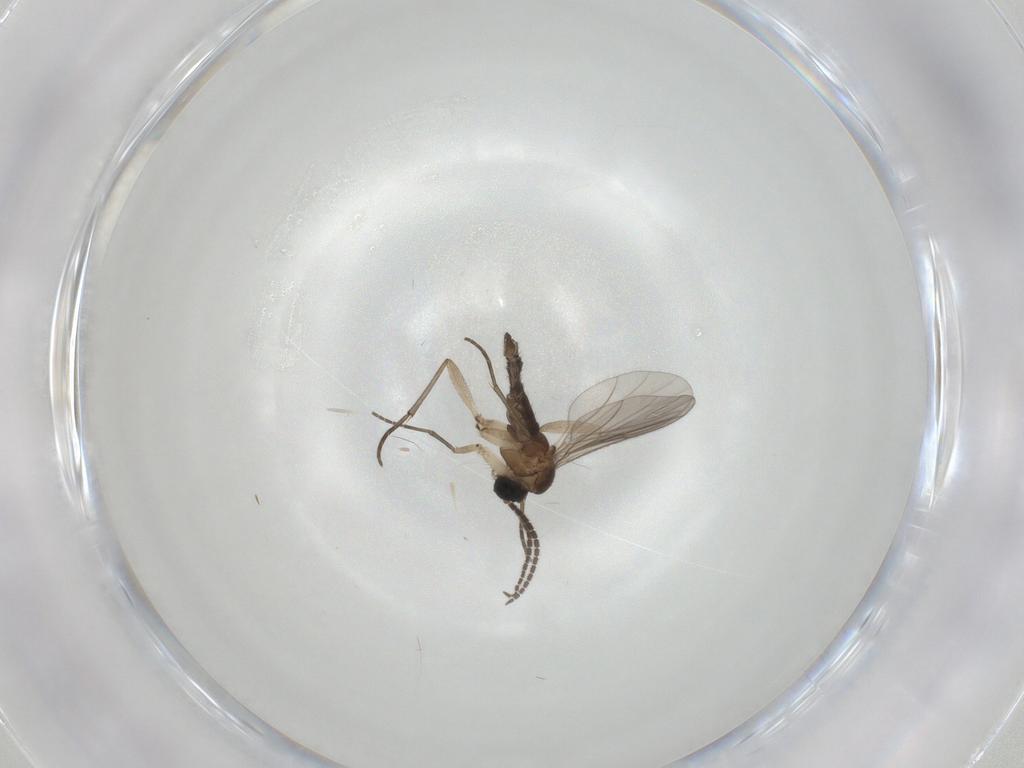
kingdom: Animalia
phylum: Arthropoda
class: Insecta
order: Diptera
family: Sciaridae
